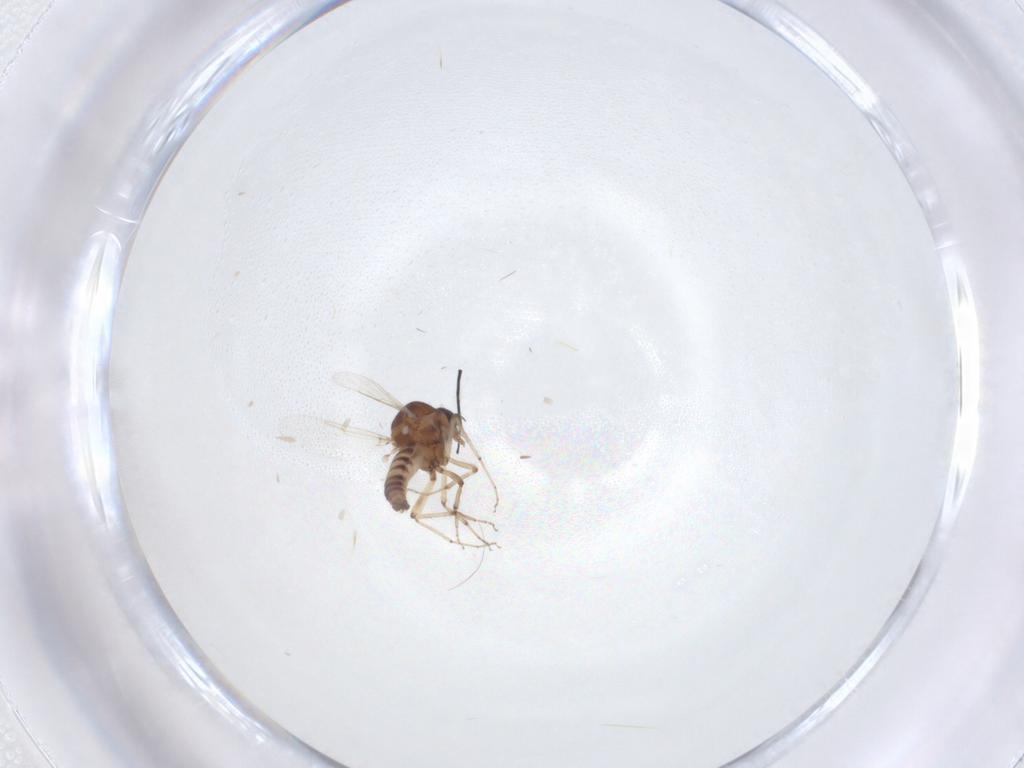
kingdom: Animalia
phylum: Arthropoda
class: Insecta
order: Diptera
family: Ceratopogonidae
